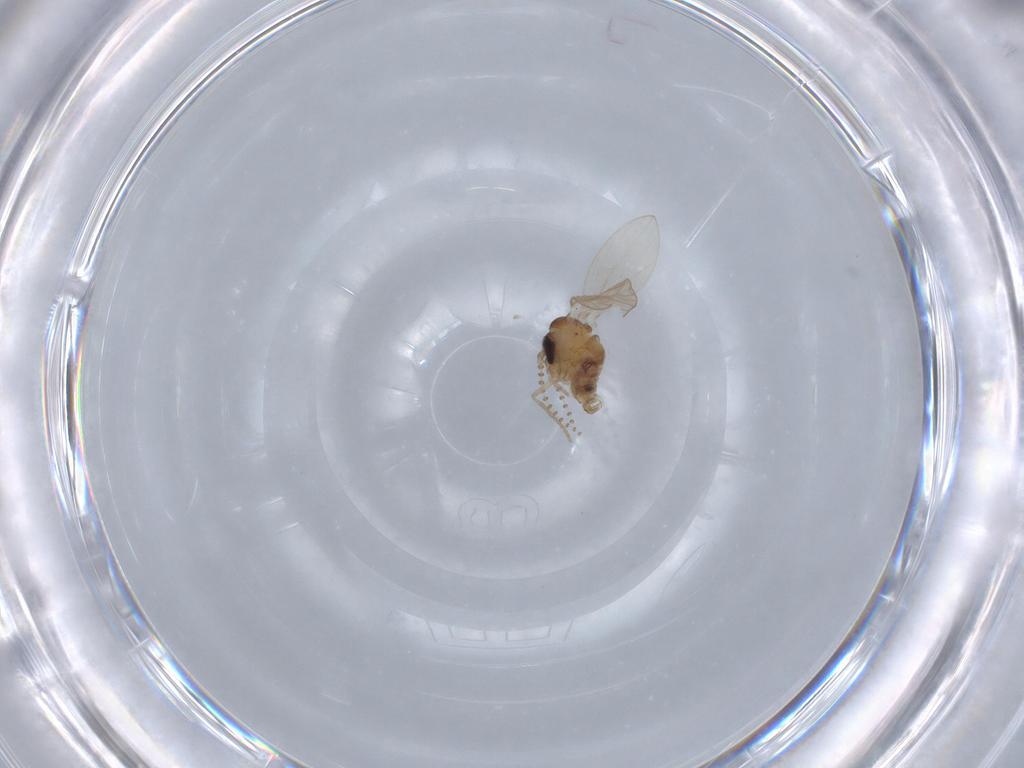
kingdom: Animalia
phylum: Arthropoda
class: Insecta
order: Diptera
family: Psychodidae
